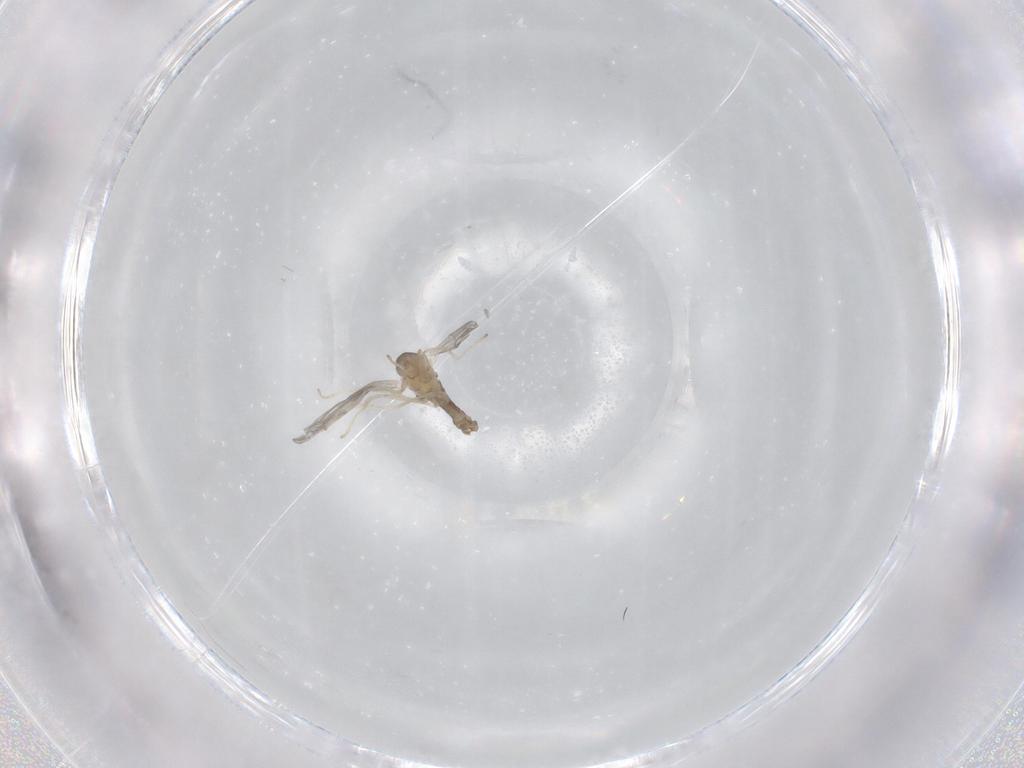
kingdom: Animalia
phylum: Arthropoda
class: Insecta
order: Diptera
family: Cecidomyiidae
